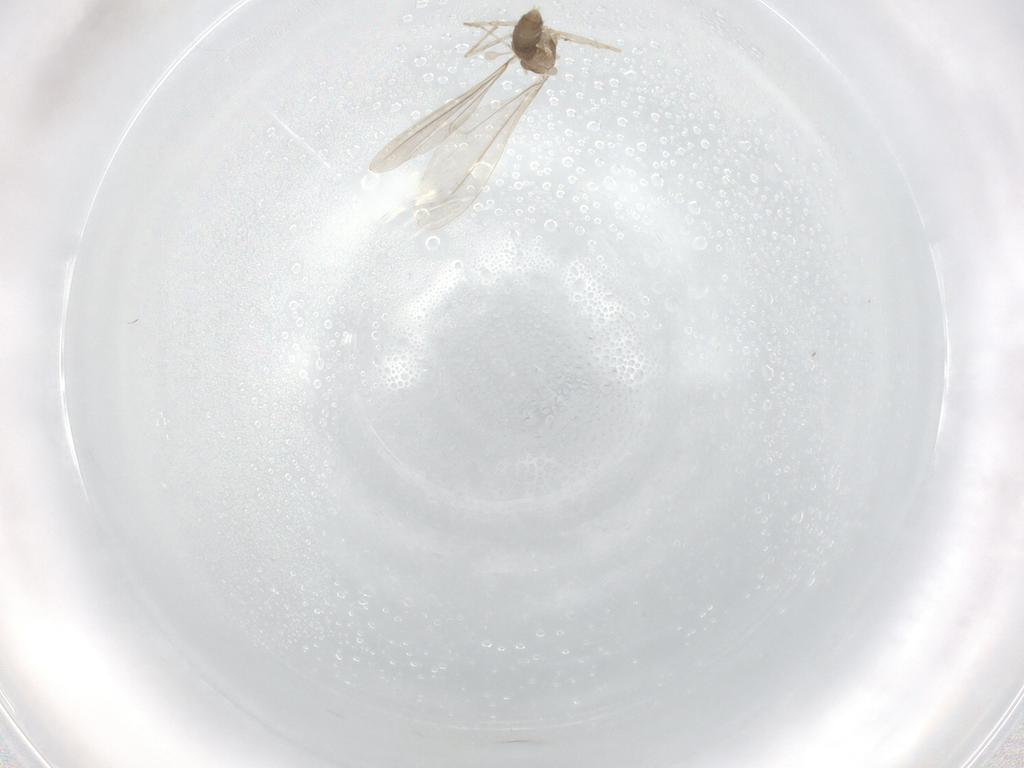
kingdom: Animalia
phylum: Arthropoda
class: Insecta
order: Diptera
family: Cecidomyiidae
